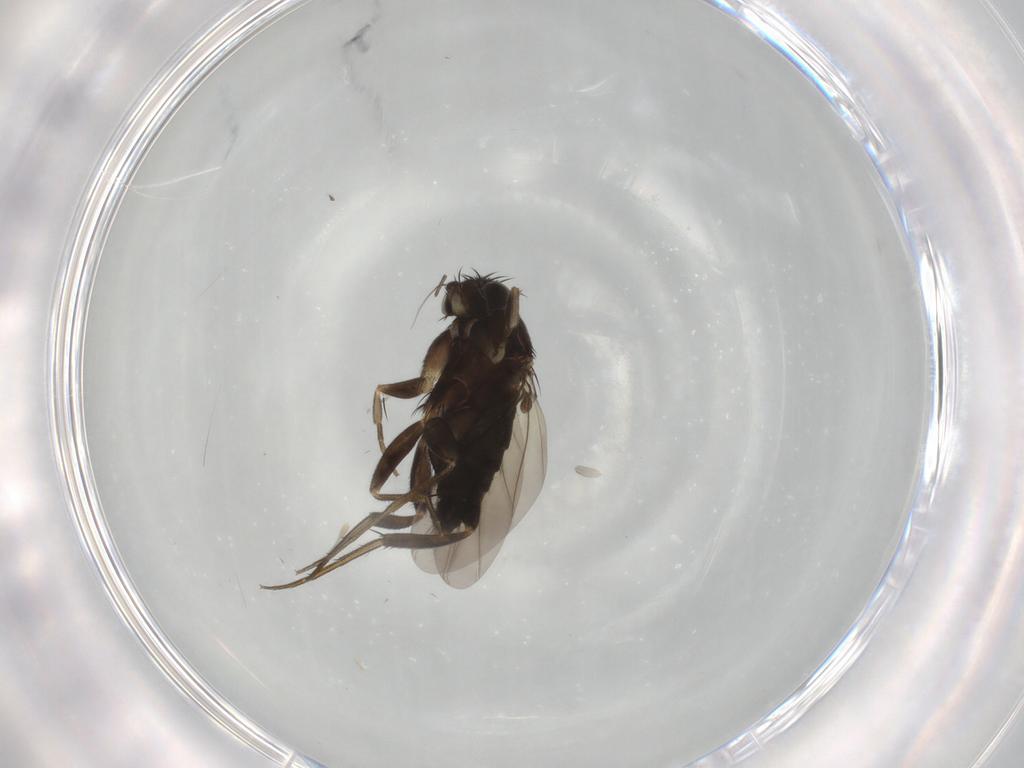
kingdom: Animalia
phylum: Arthropoda
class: Insecta
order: Diptera
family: Phoridae
